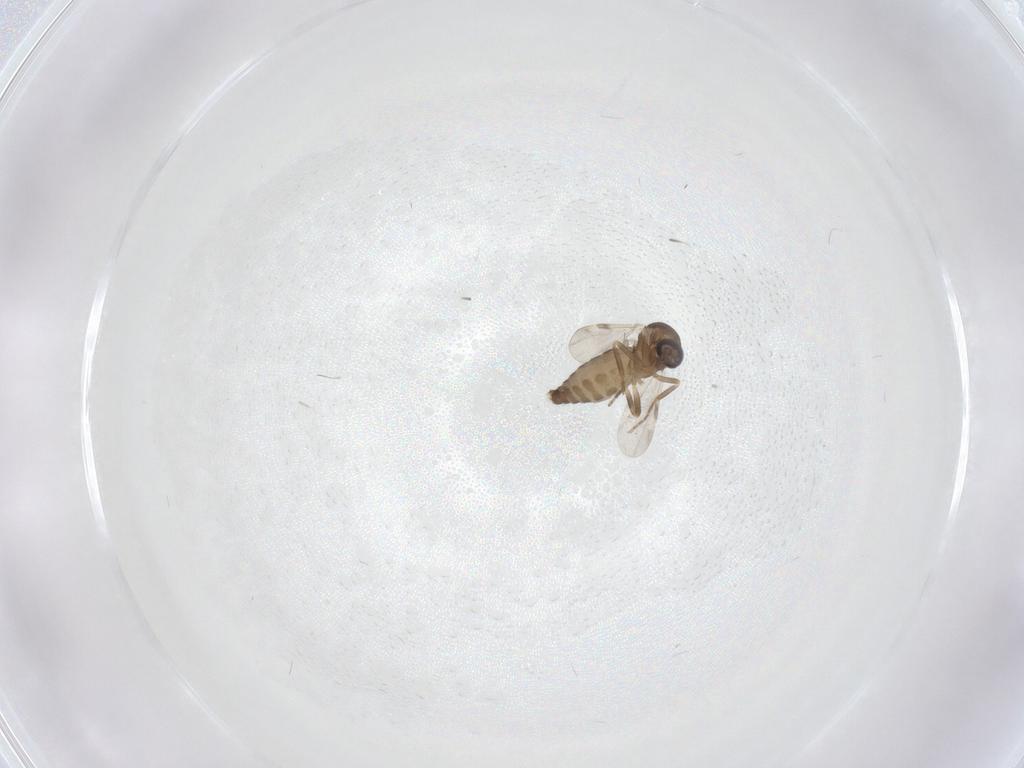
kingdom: Animalia
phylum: Arthropoda
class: Insecta
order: Diptera
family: Ceratopogonidae
